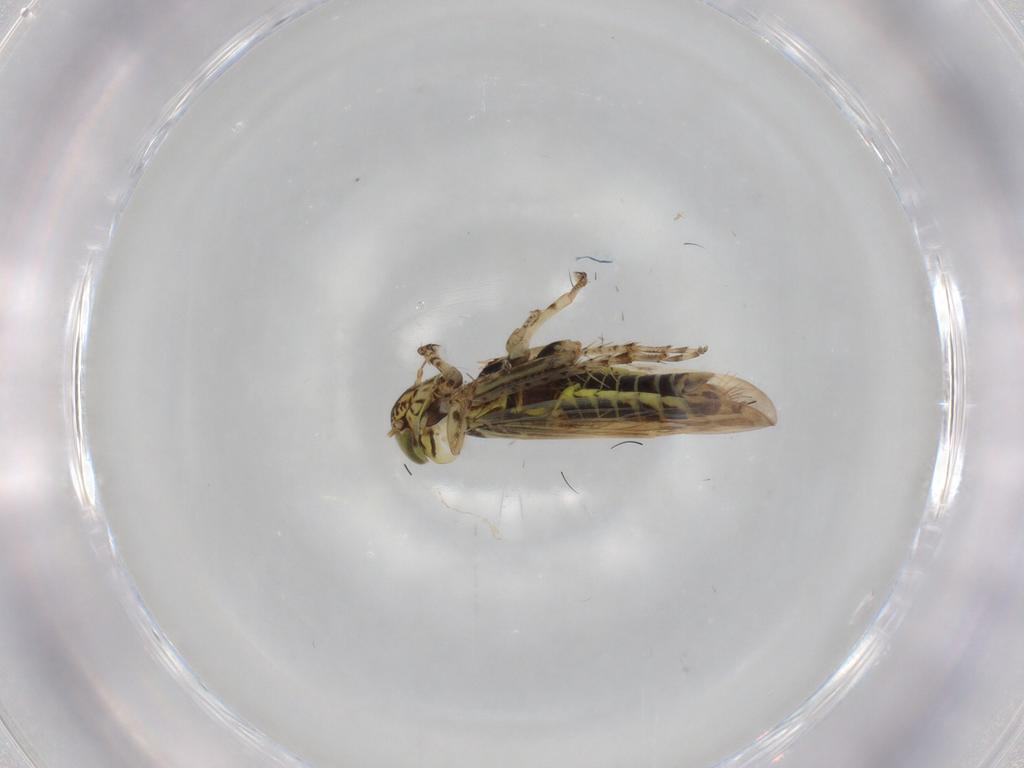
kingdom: Animalia
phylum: Arthropoda
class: Insecta
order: Hemiptera
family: Cicadellidae
